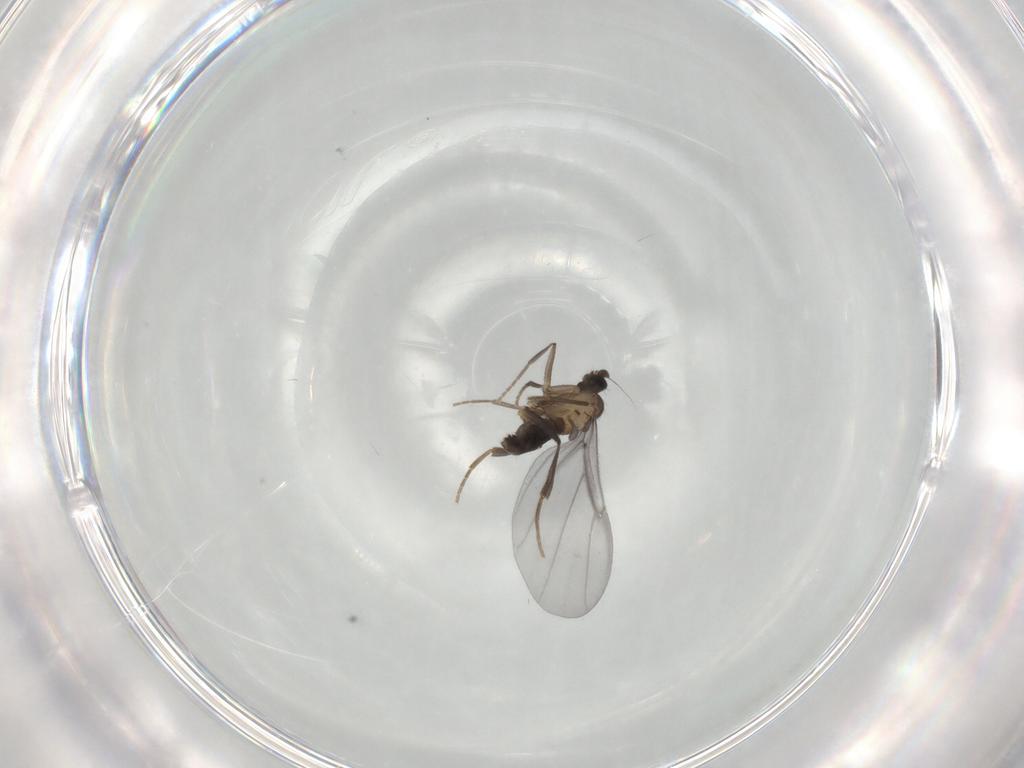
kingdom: Animalia
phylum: Arthropoda
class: Insecta
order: Diptera
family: Phoridae
